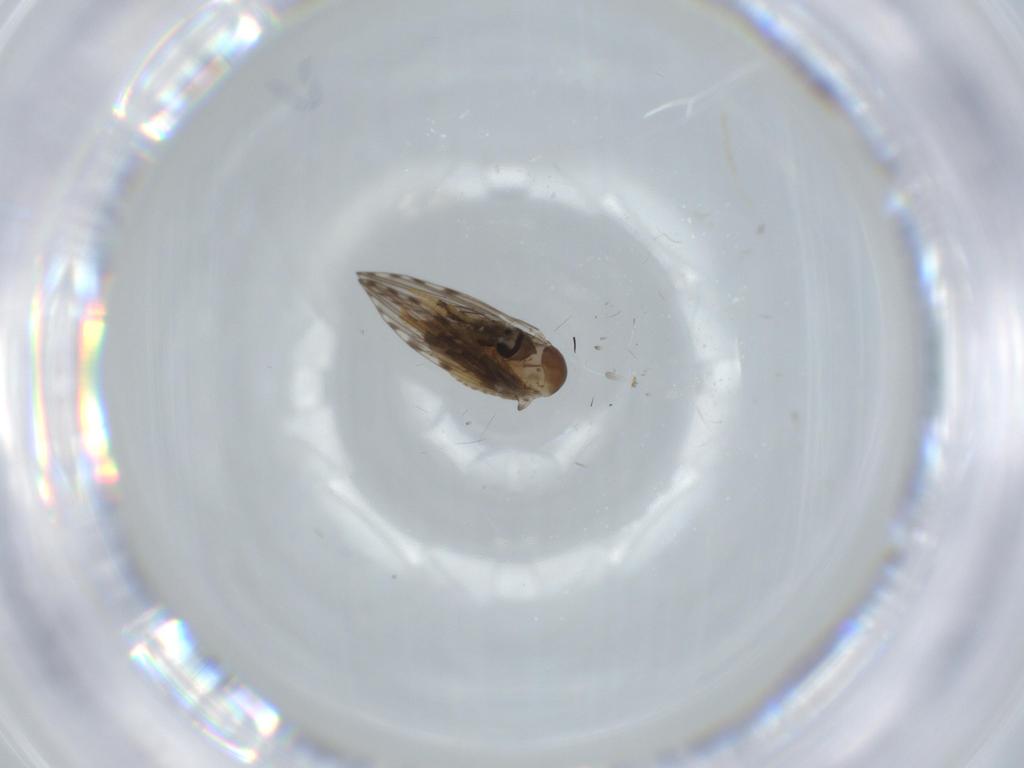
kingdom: Animalia
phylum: Arthropoda
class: Insecta
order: Diptera
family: Psychodidae
